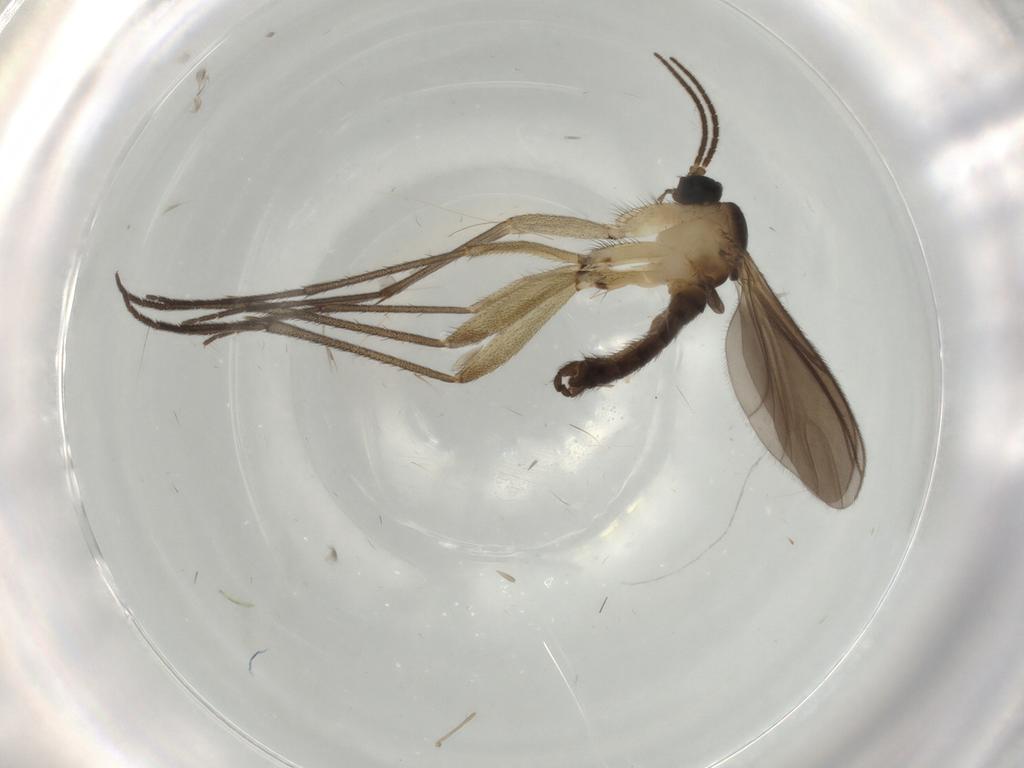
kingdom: Animalia
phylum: Arthropoda
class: Insecta
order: Diptera
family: Sciaridae
